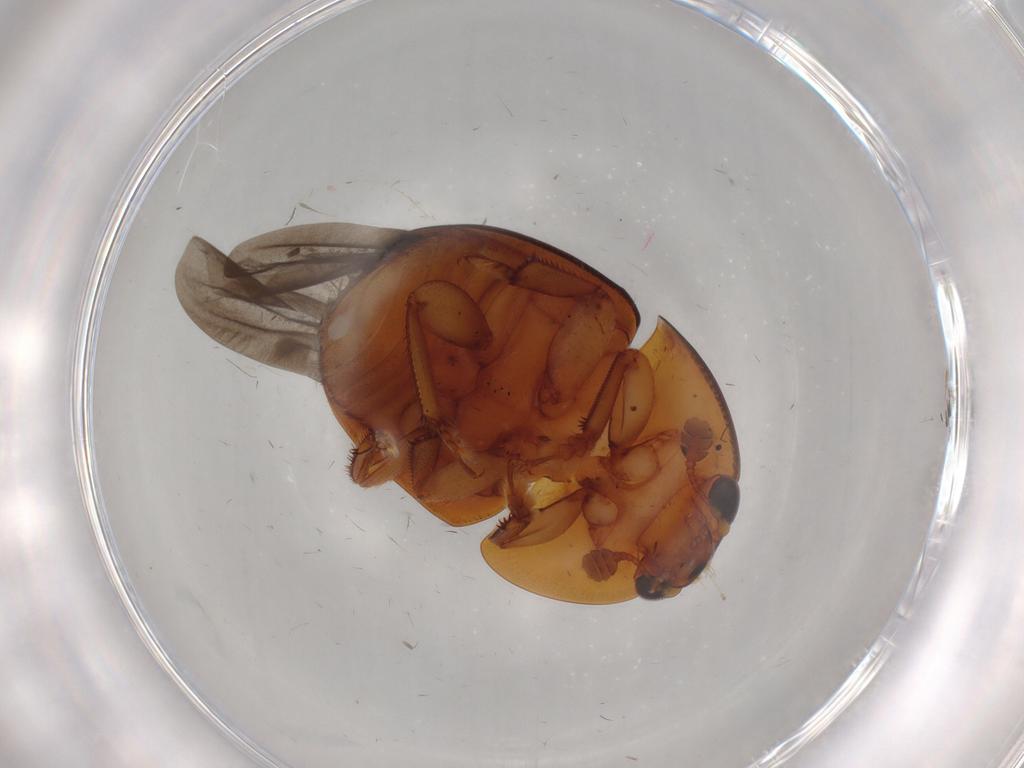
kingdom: Animalia
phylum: Arthropoda
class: Insecta
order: Coleoptera
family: Nitidulidae
